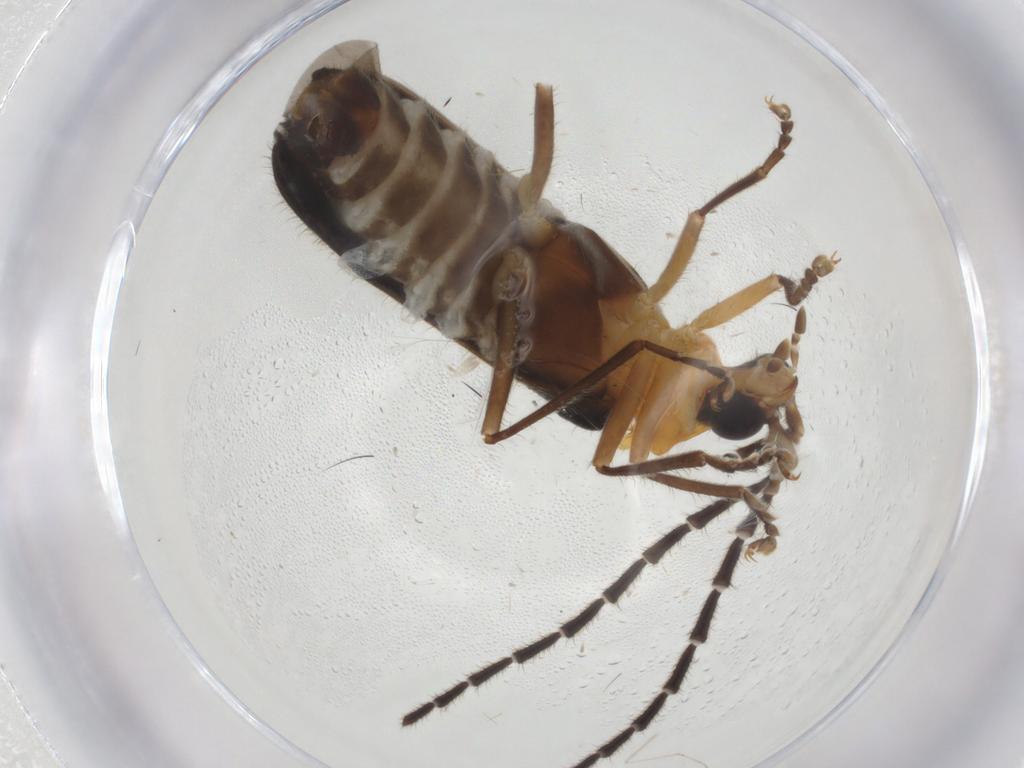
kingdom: Animalia
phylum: Arthropoda
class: Insecta
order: Coleoptera
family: Cantharidae
